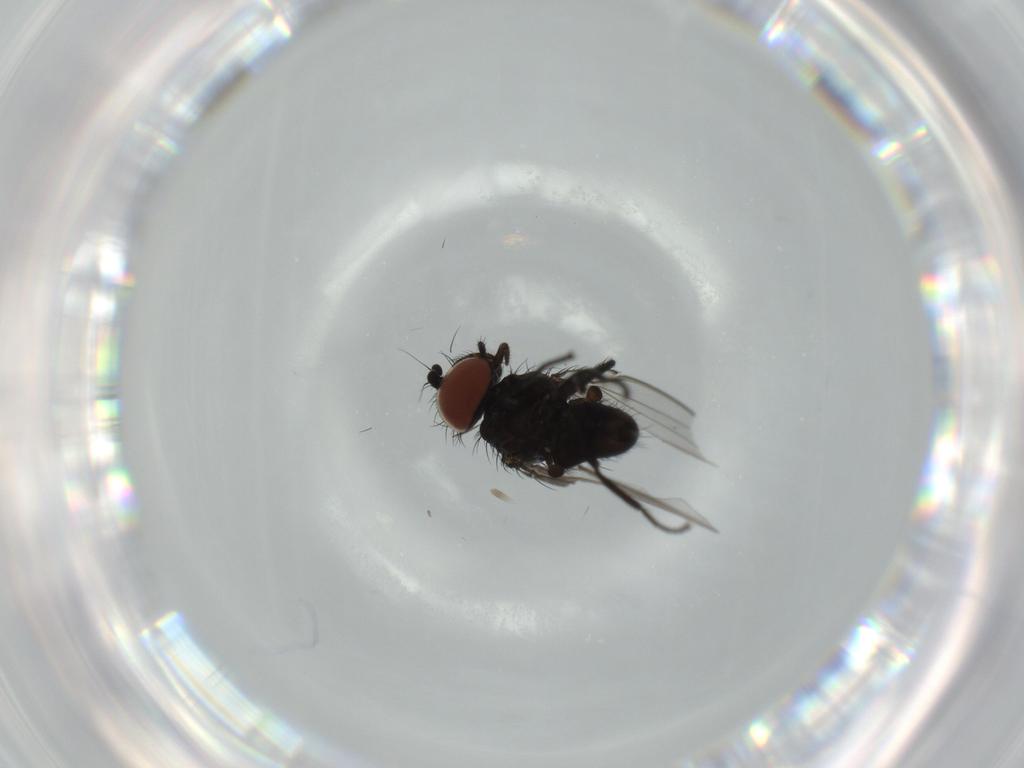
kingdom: Animalia
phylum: Arthropoda
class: Insecta
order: Diptera
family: Milichiidae
